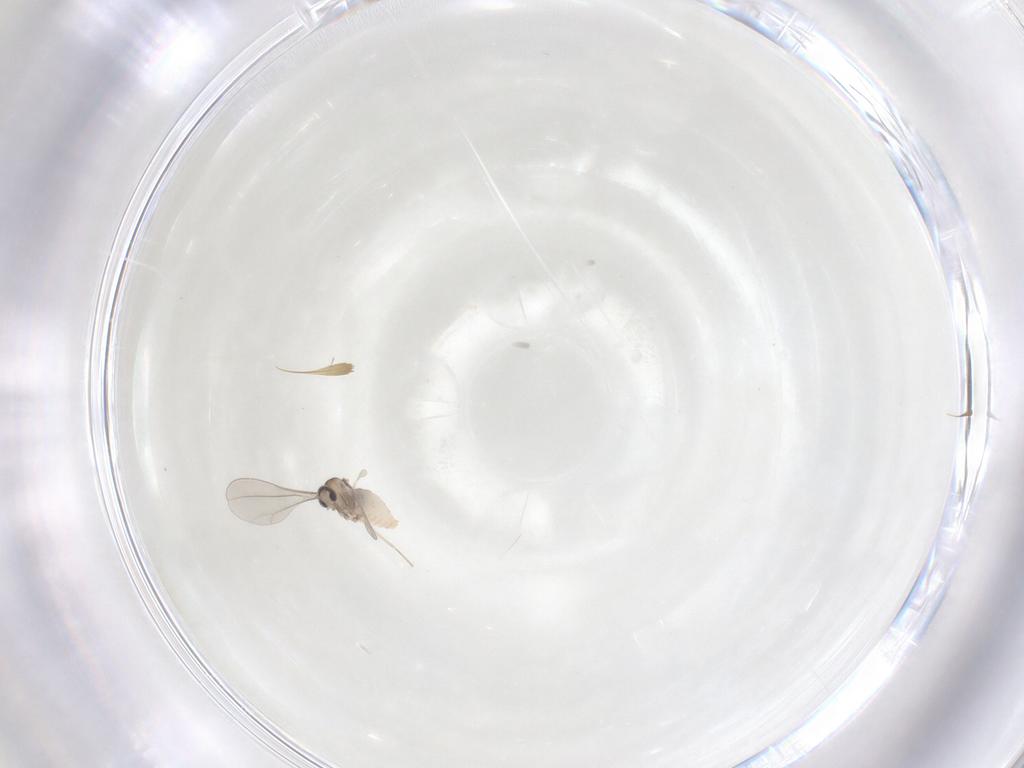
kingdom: Animalia
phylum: Arthropoda
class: Insecta
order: Diptera
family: Cecidomyiidae
